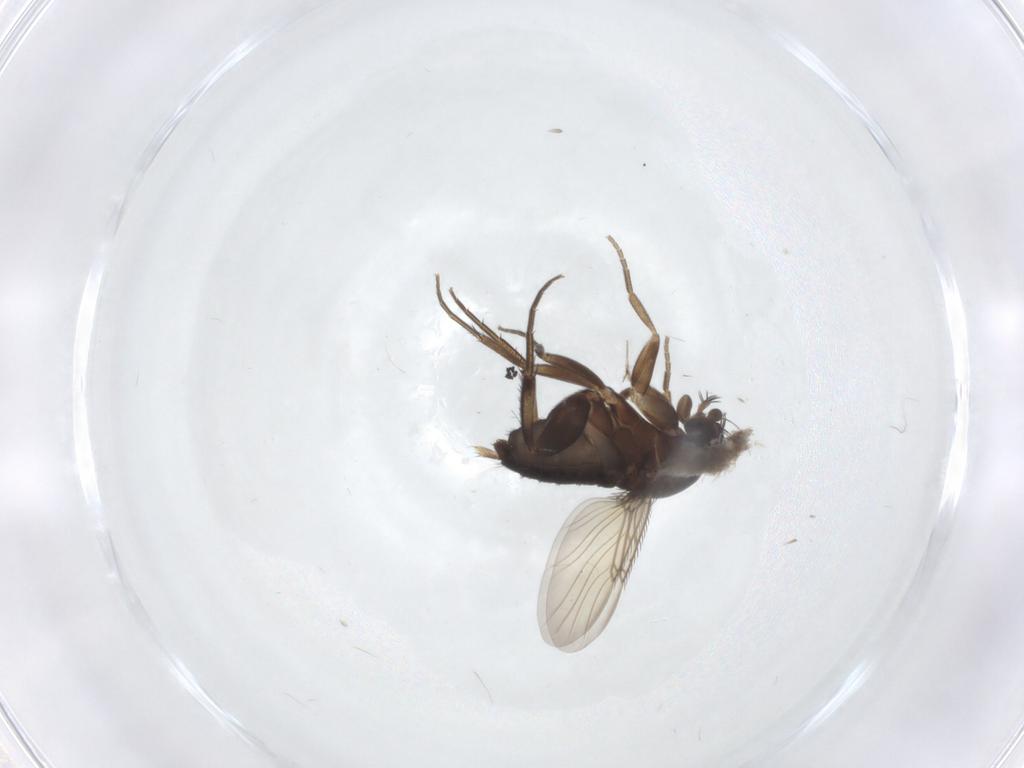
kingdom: Animalia
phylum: Arthropoda
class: Insecta
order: Diptera
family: Phoridae
